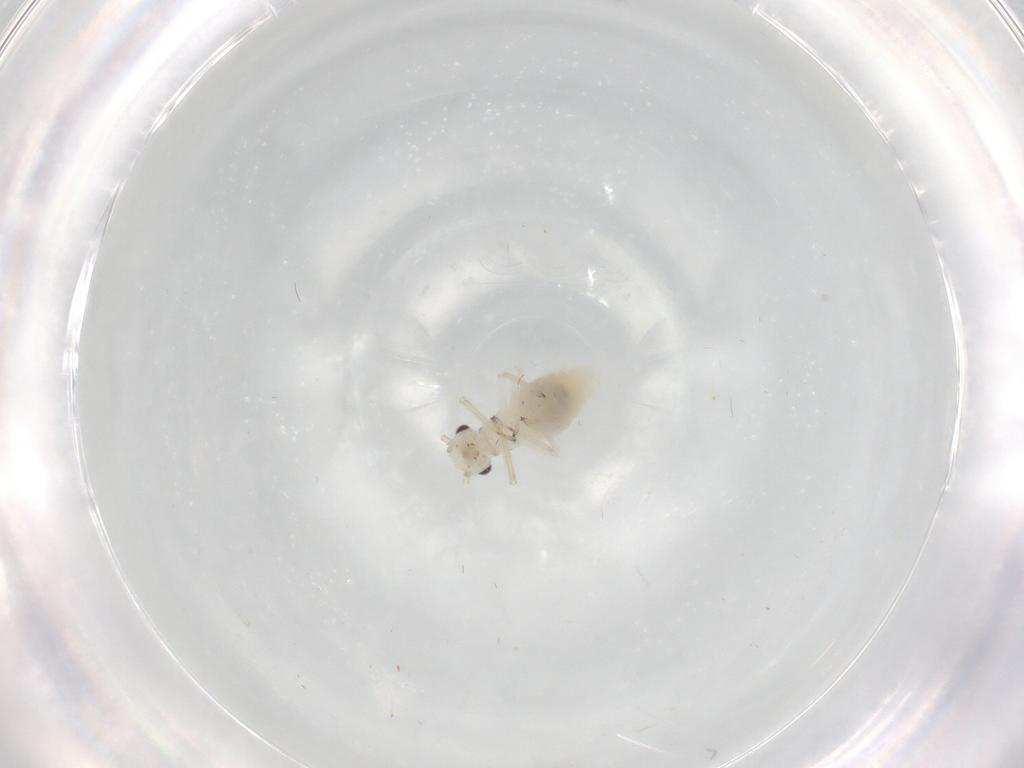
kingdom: Animalia
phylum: Arthropoda
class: Insecta
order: Psocodea
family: Caeciliusidae
